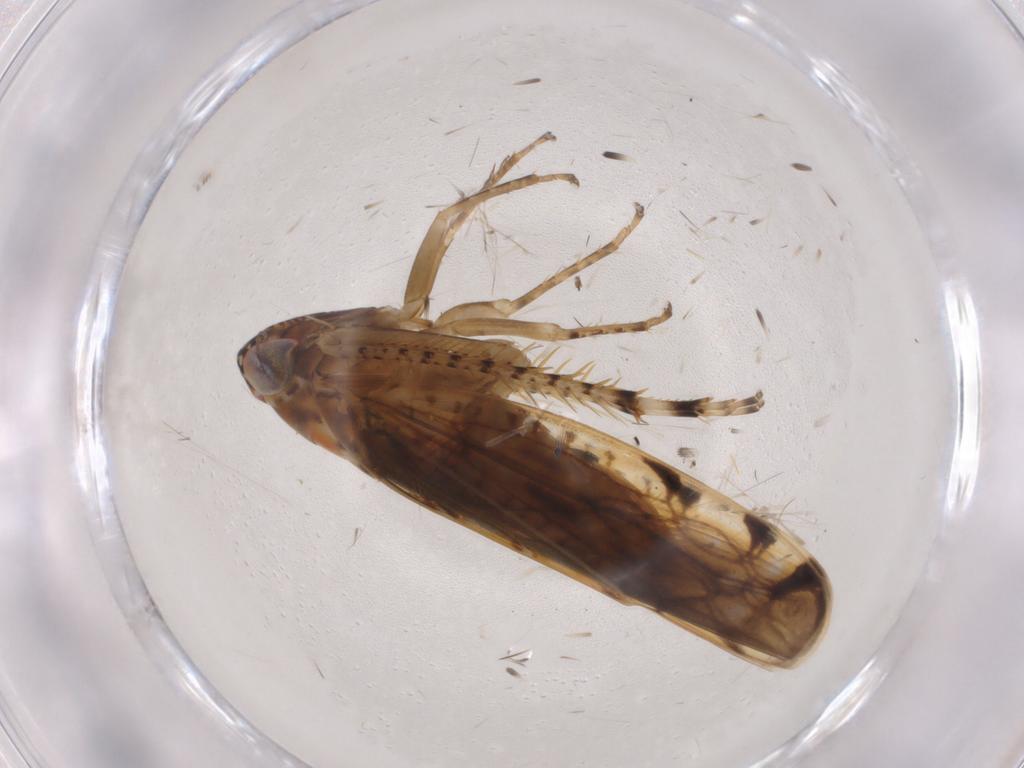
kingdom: Animalia
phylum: Arthropoda
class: Insecta
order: Hemiptera
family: Cicadellidae
